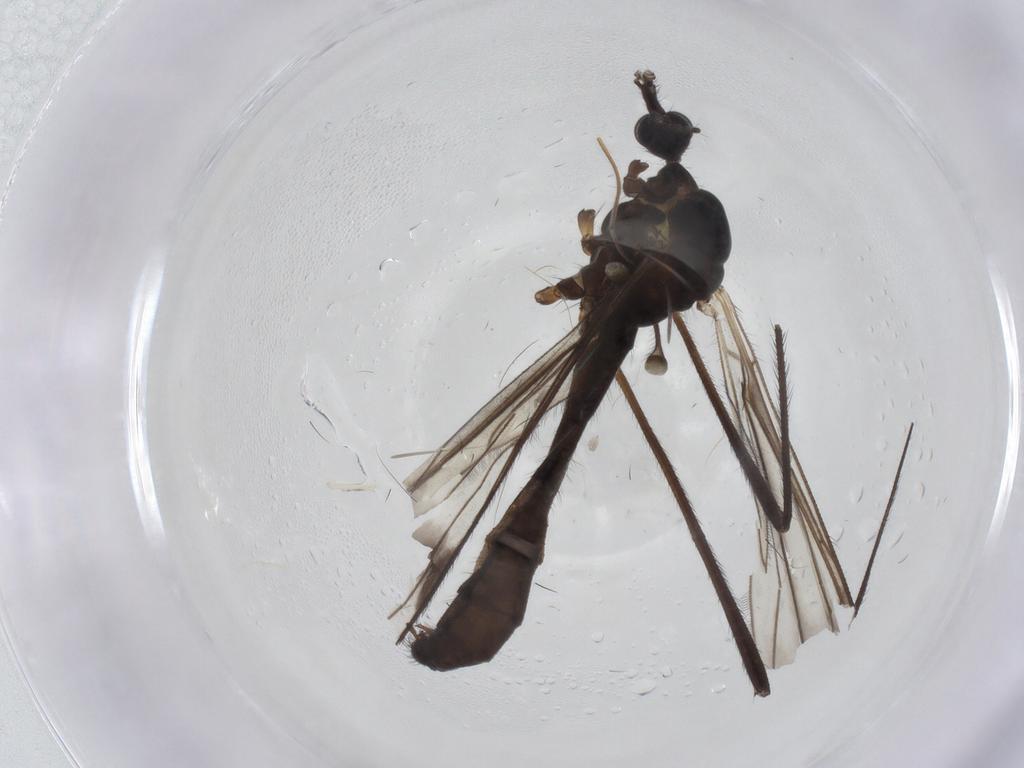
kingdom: Animalia
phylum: Arthropoda
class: Insecta
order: Diptera
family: Limoniidae
